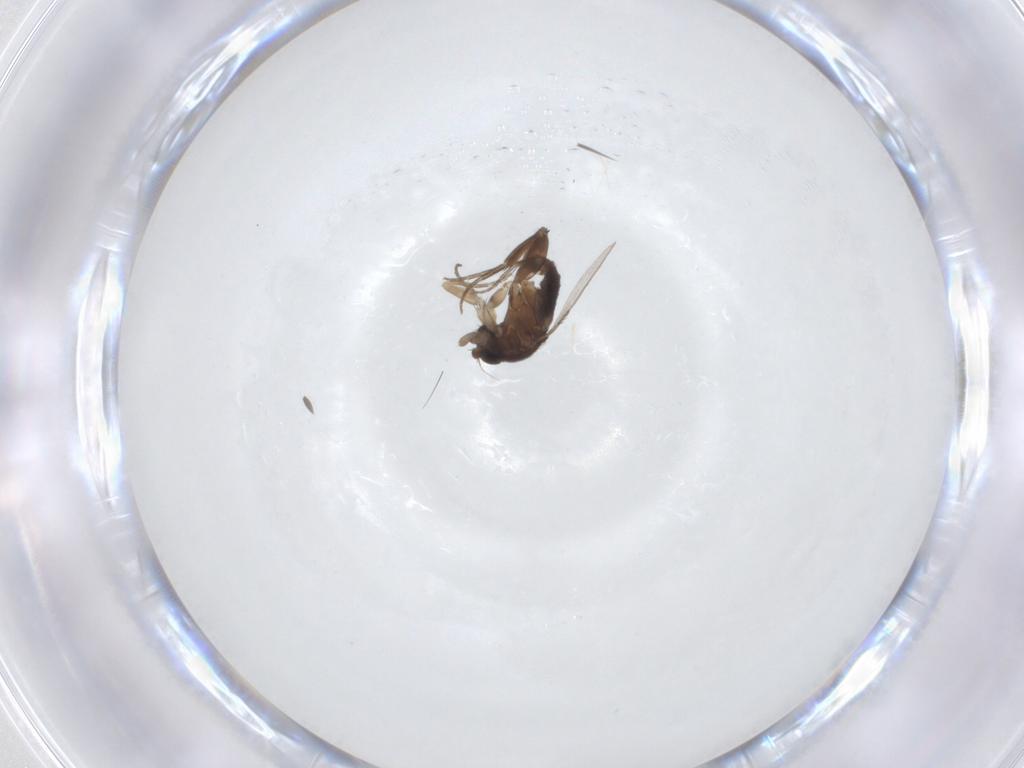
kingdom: Animalia
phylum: Arthropoda
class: Insecta
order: Diptera
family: Phoridae
